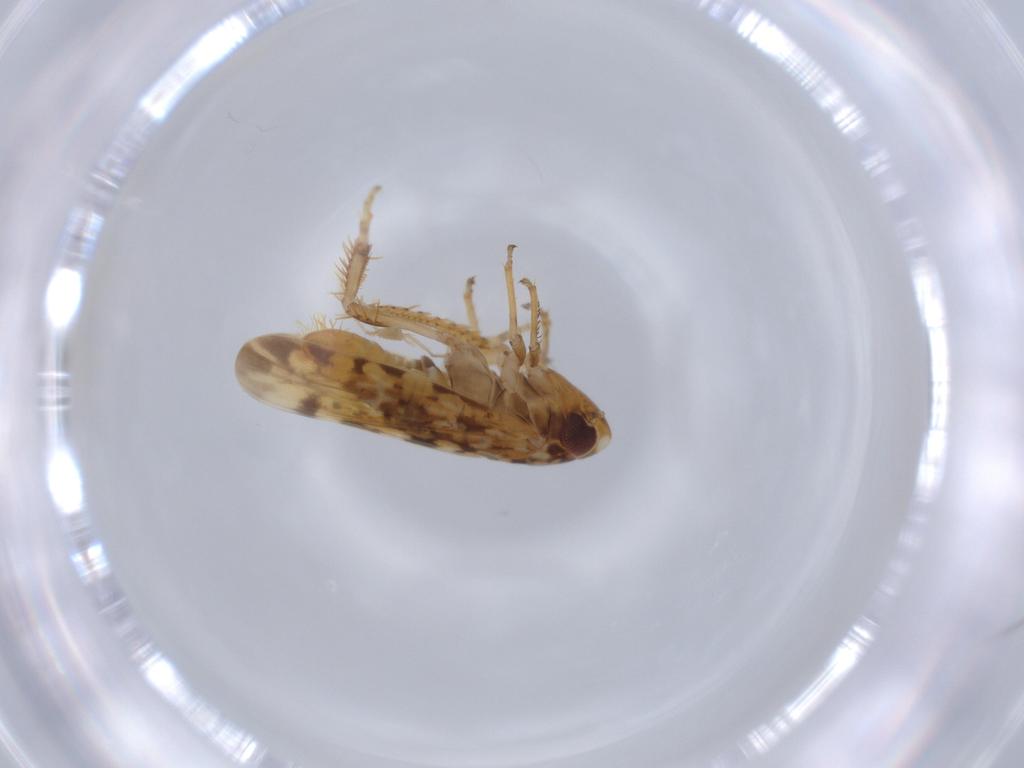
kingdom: Animalia
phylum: Arthropoda
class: Insecta
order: Hemiptera
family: Cicadellidae
